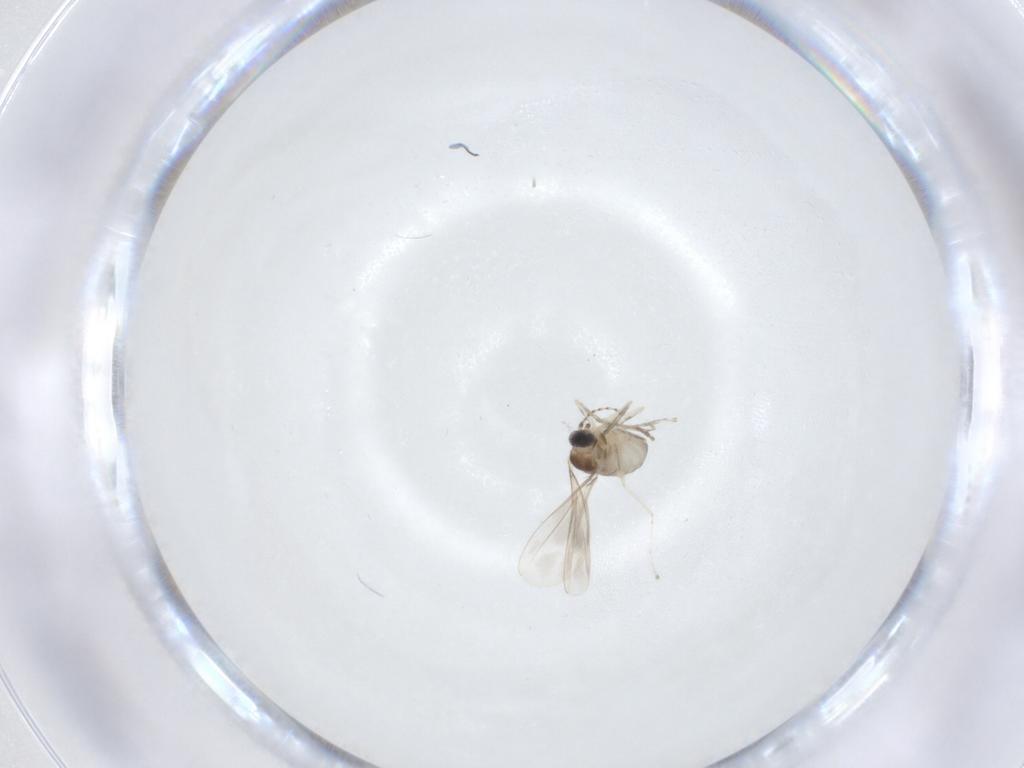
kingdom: Animalia
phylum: Arthropoda
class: Insecta
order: Diptera
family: Cecidomyiidae
